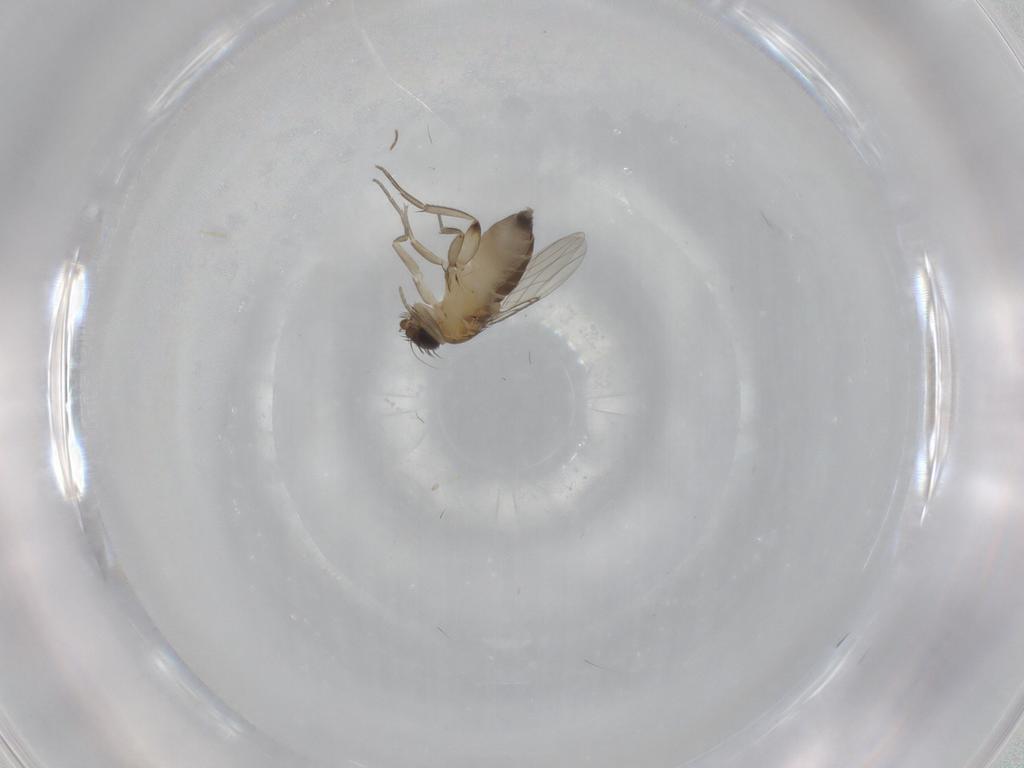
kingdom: Animalia
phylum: Arthropoda
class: Insecta
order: Diptera
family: Phoridae
